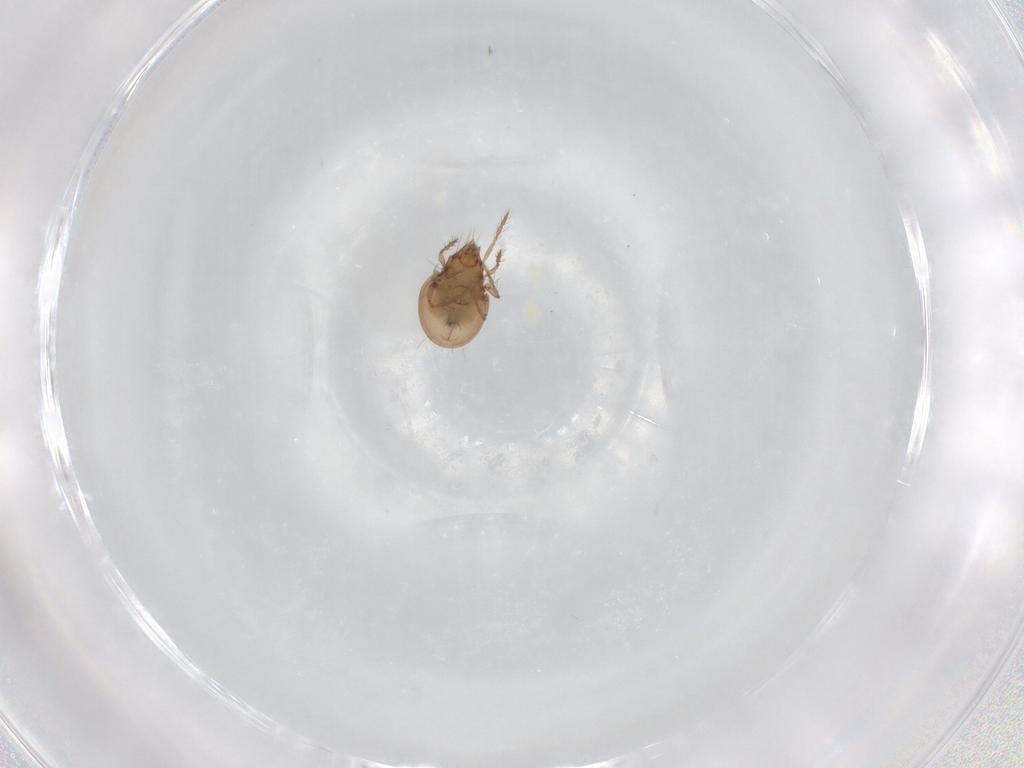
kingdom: Animalia
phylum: Arthropoda
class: Arachnida
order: Sarcoptiformes
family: Ceratoppiidae
